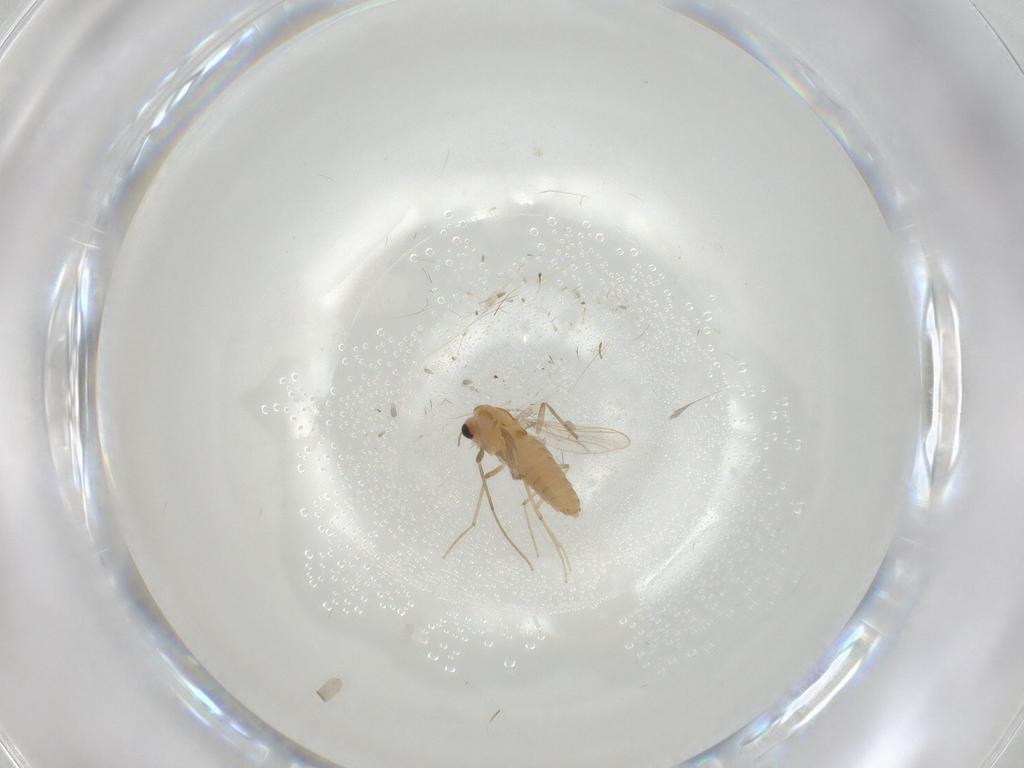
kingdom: Animalia
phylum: Arthropoda
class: Insecta
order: Diptera
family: Chironomidae
